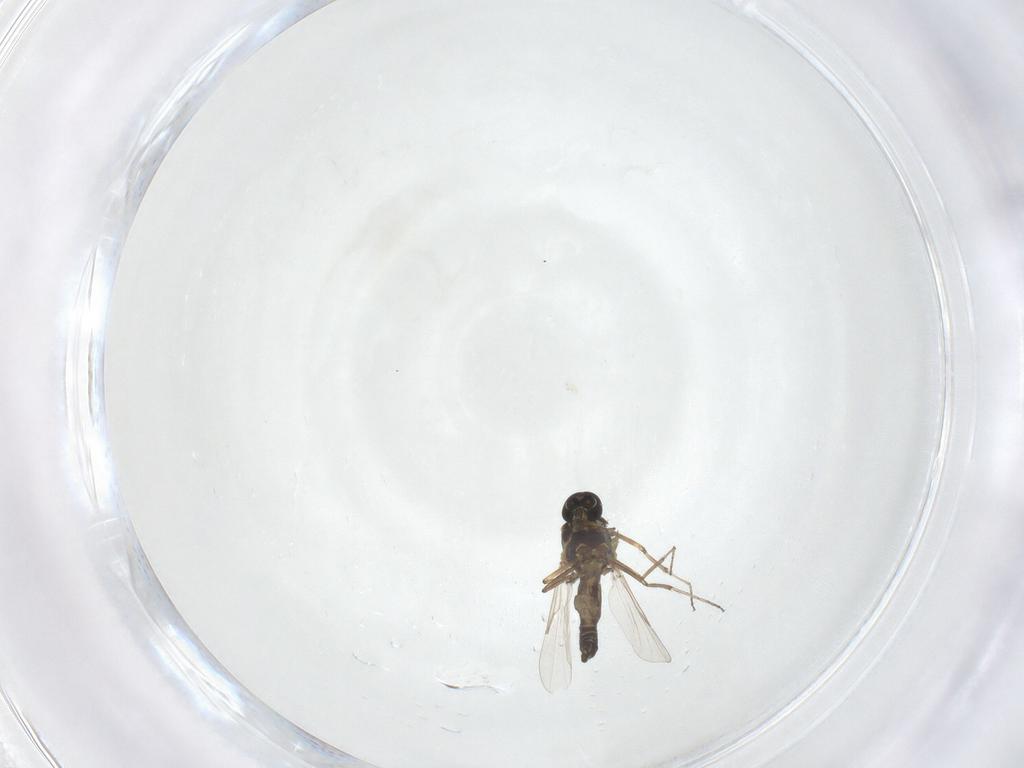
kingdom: Animalia
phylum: Arthropoda
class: Insecta
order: Diptera
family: Ceratopogonidae
